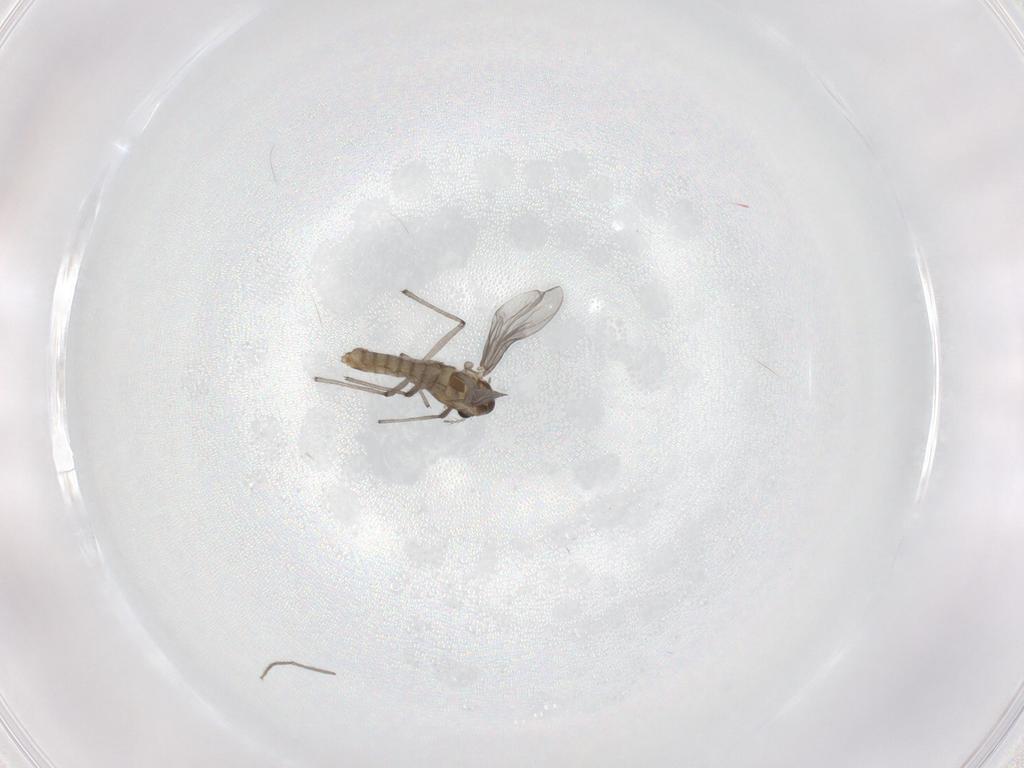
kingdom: Animalia
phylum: Arthropoda
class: Insecta
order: Diptera
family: Chironomidae
